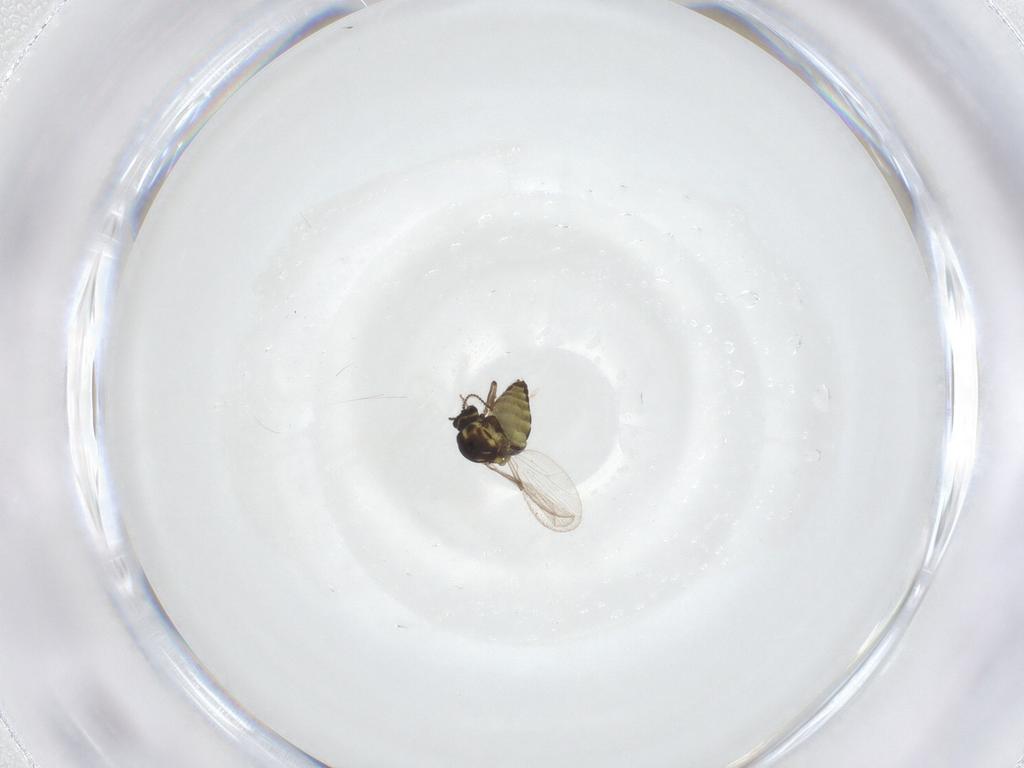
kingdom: Animalia
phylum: Arthropoda
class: Insecta
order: Diptera
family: Ceratopogonidae
